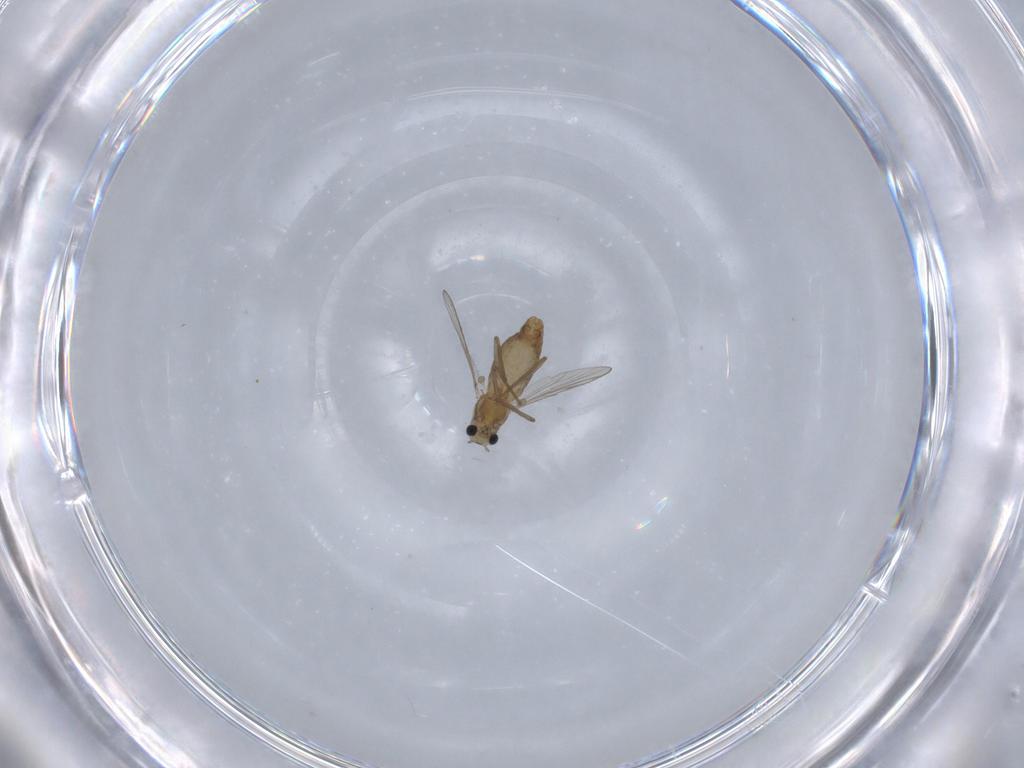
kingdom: Animalia
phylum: Arthropoda
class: Insecta
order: Diptera
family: Chironomidae
